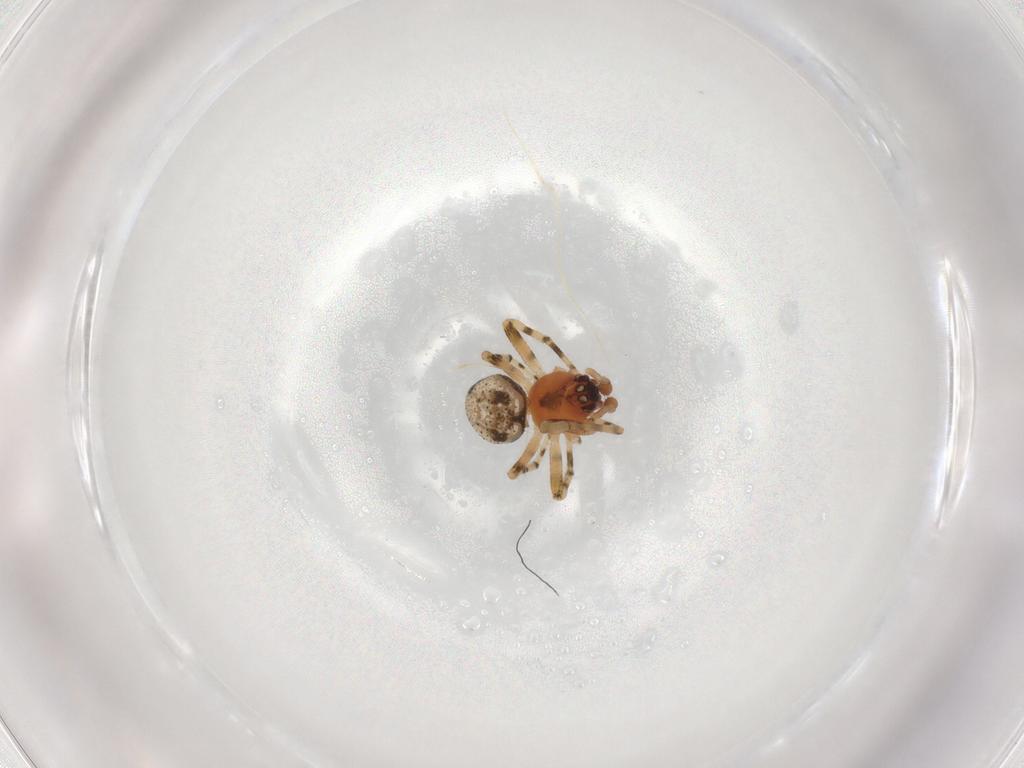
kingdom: Animalia
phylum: Arthropoda
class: Arachnida
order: Araneae
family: Theridiidae
